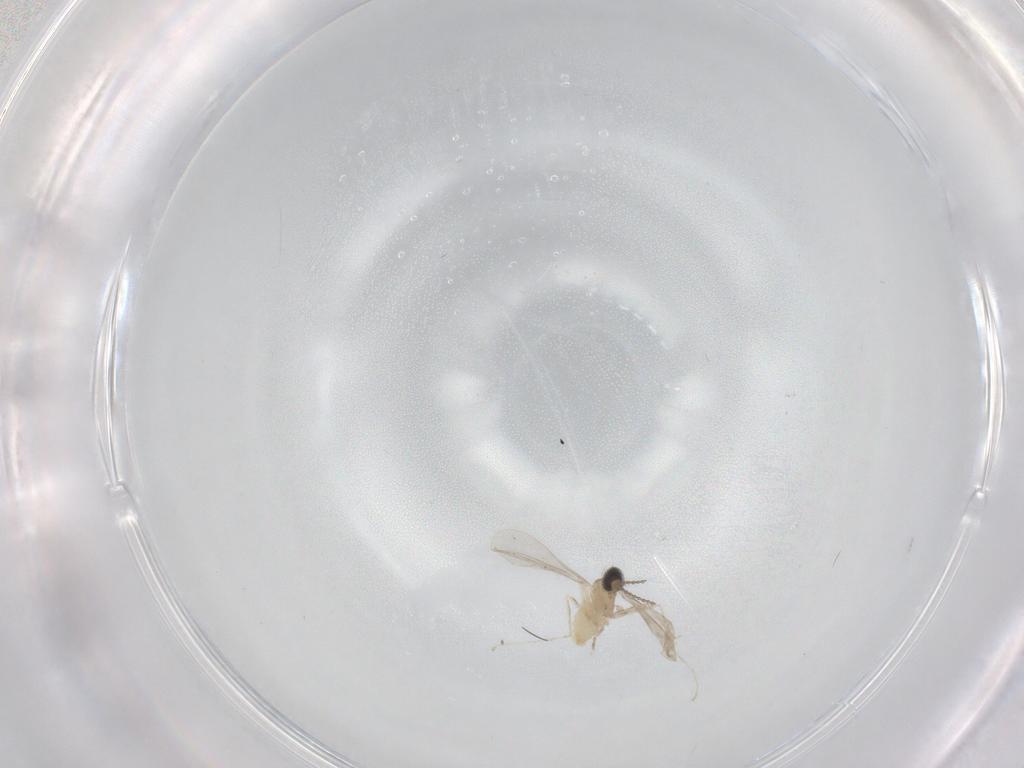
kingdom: Animalia
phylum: Arthropoda
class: Insecta
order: Diptera
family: Cecidomyiidae
